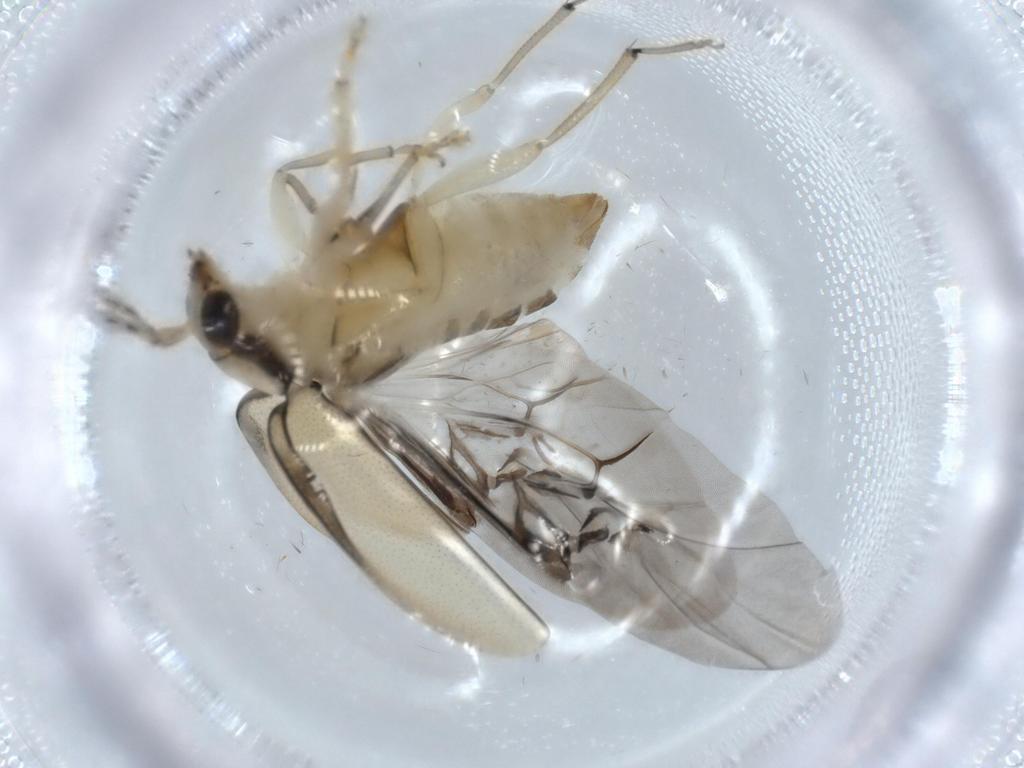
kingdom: Animalia
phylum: Arthropoda
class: Insecta
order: Coleoptera
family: Chrysomelidae
